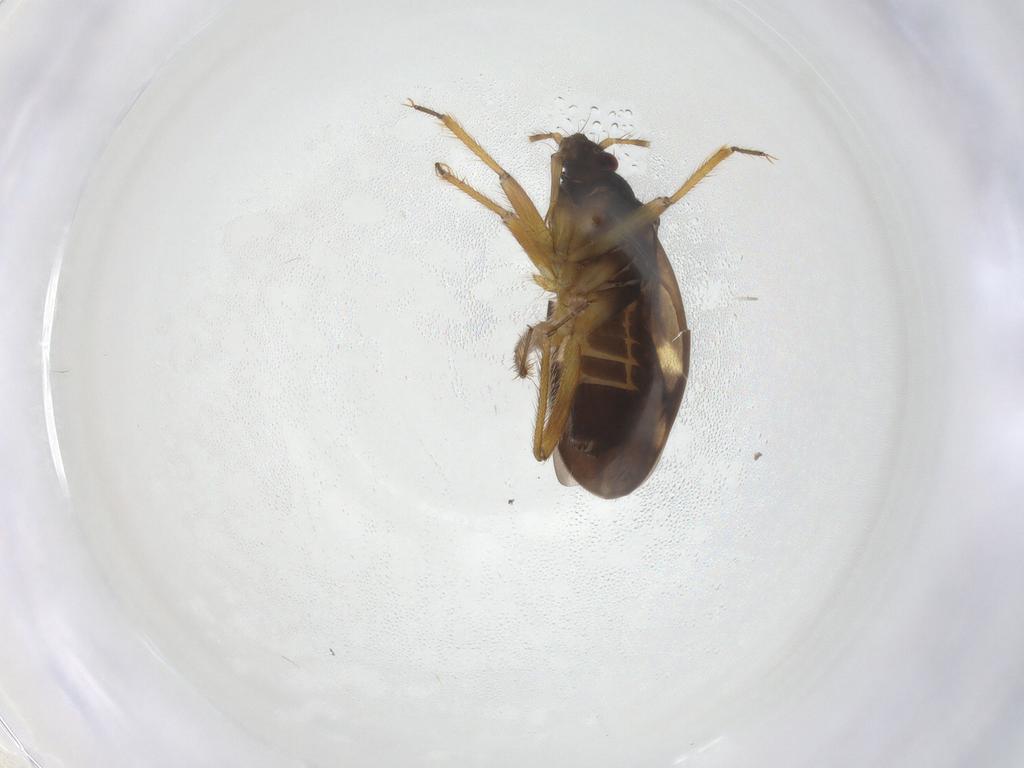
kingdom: Animalia
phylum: Arthropoda
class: Insecta
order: Hemiptera
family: Ceratocombidae
